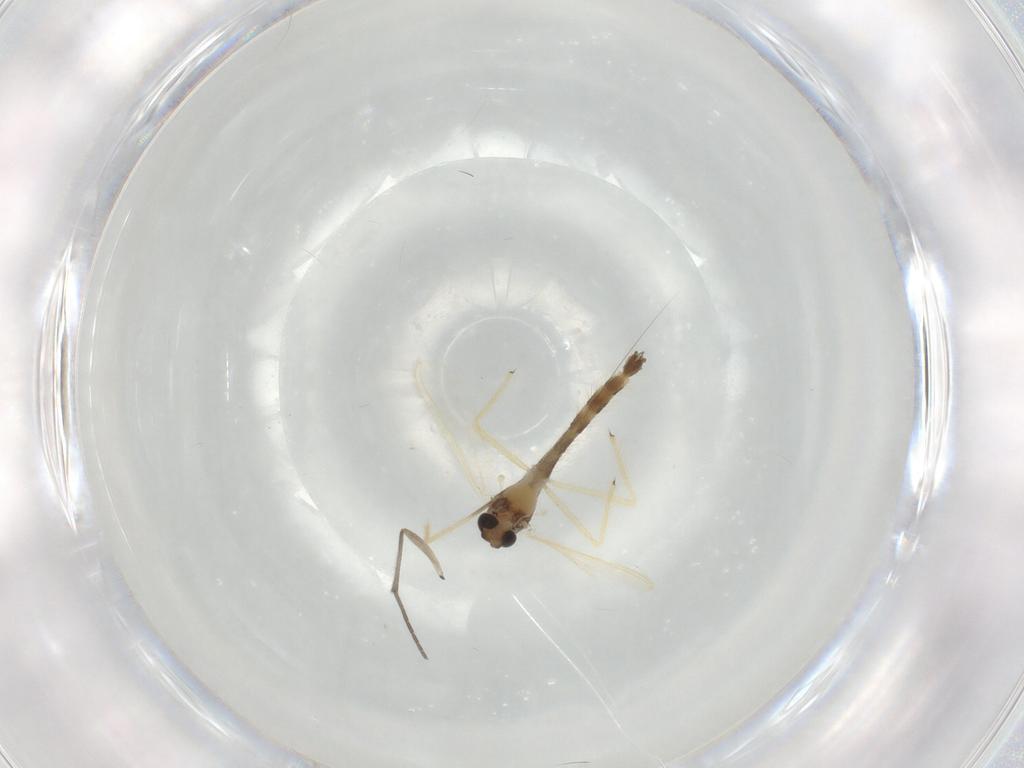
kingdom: Animalia
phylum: Arthropoda
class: Insecta
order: Diptera
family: Chironomidae
